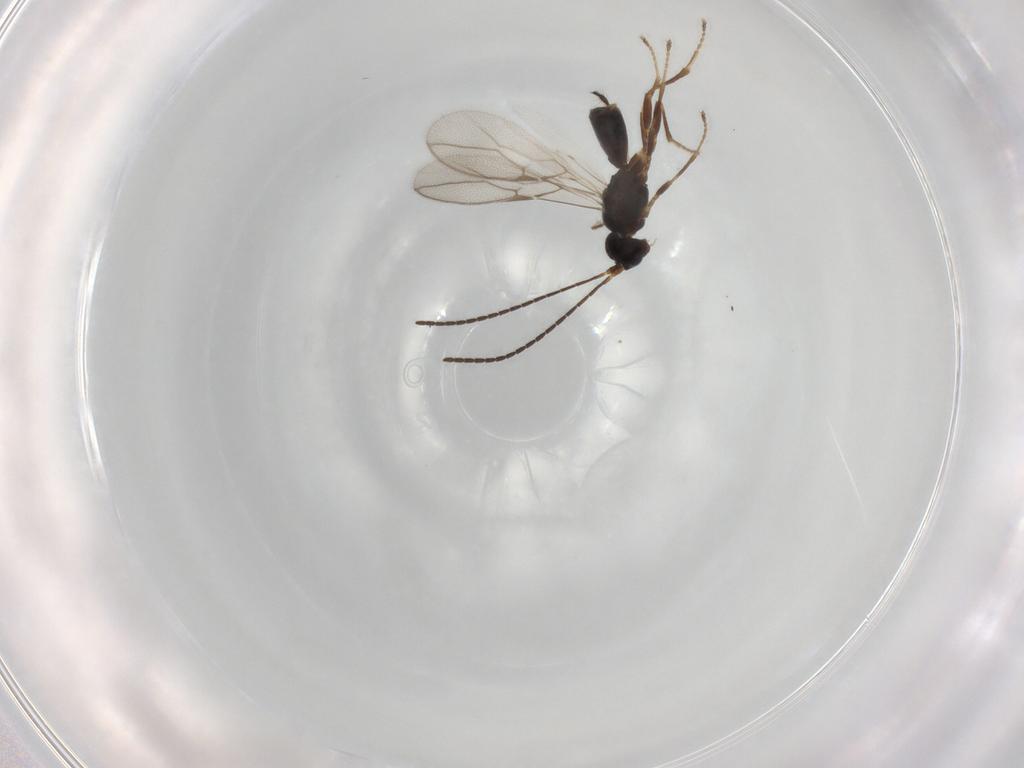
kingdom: Animalia
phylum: Arthropoda
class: Insecta
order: Hymenoptera
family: Braconidae
